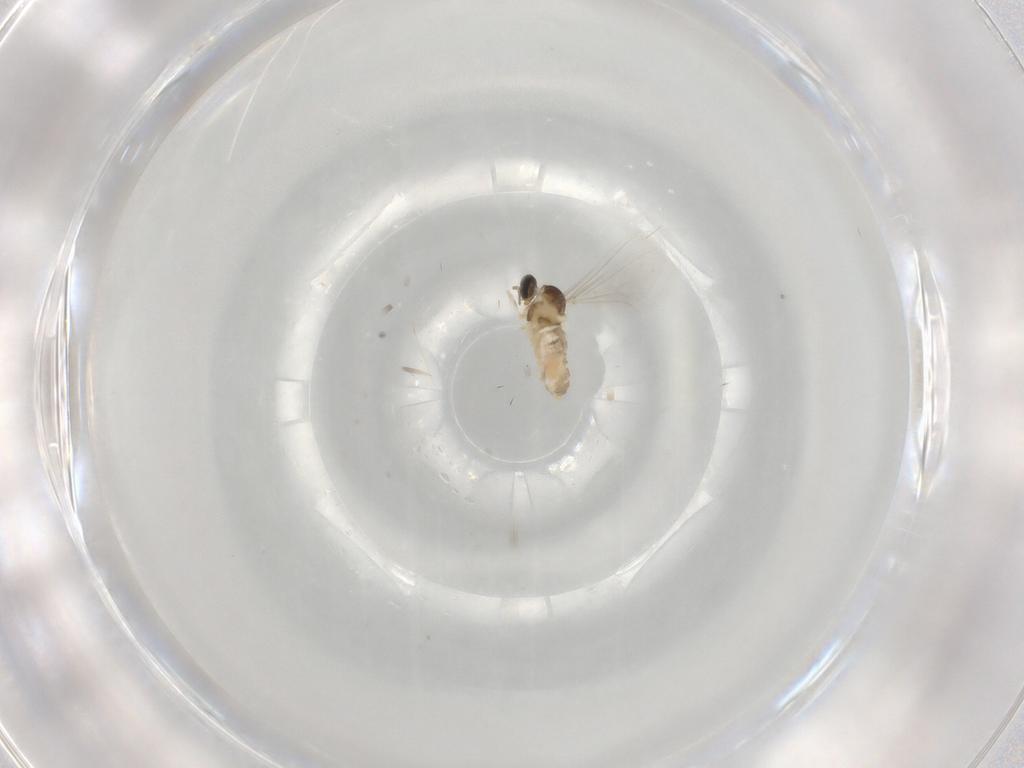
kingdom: Animalia
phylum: Arthropoda
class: Insecta
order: Diptera
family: Cecidomyiidae
